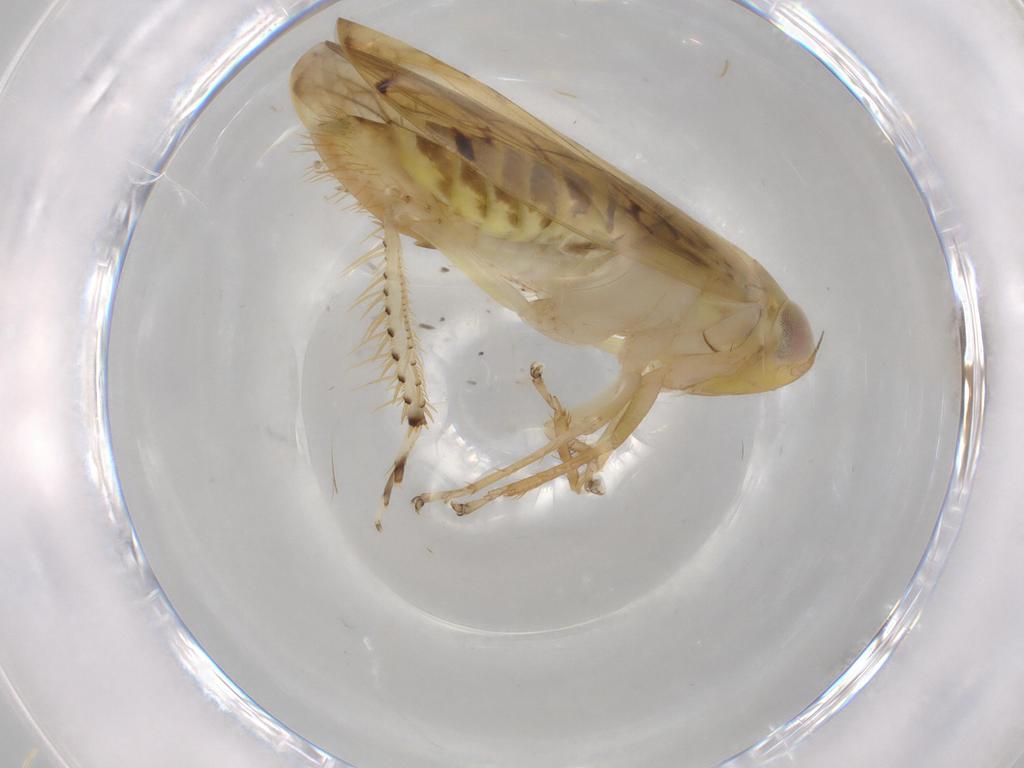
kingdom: Animalia
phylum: Arthropoda
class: Insecta
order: Hemiptera
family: Cicadellidae
